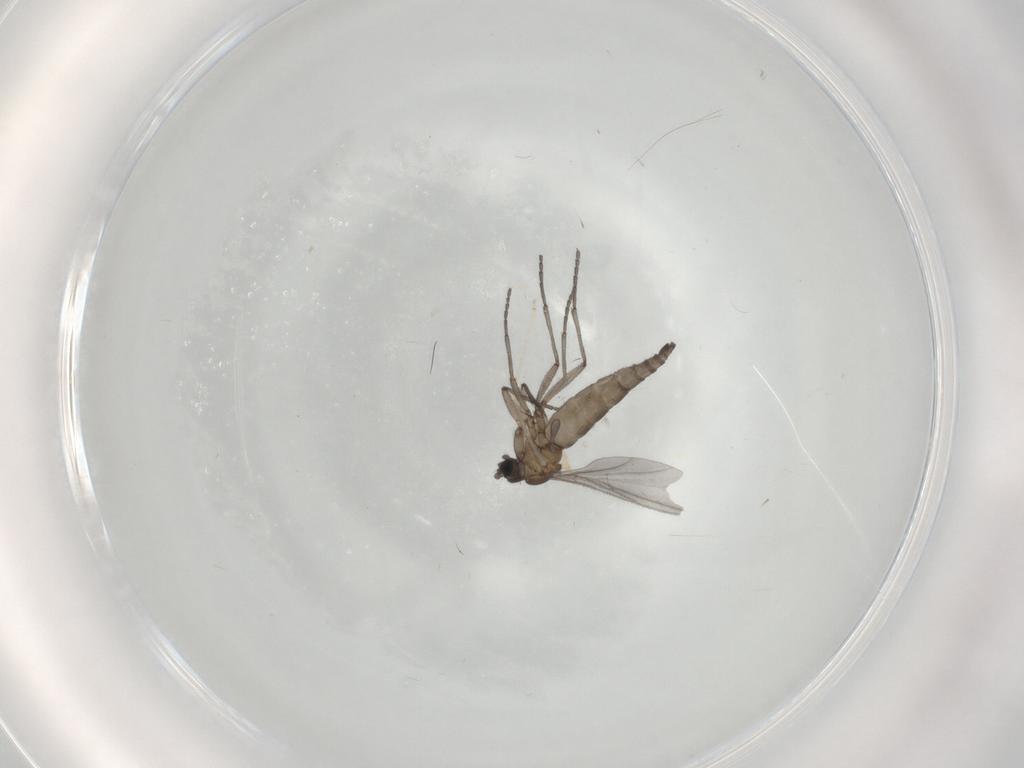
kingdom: Animalia
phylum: Arthropoda
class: Insecta
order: Diptera
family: Sciaridae
